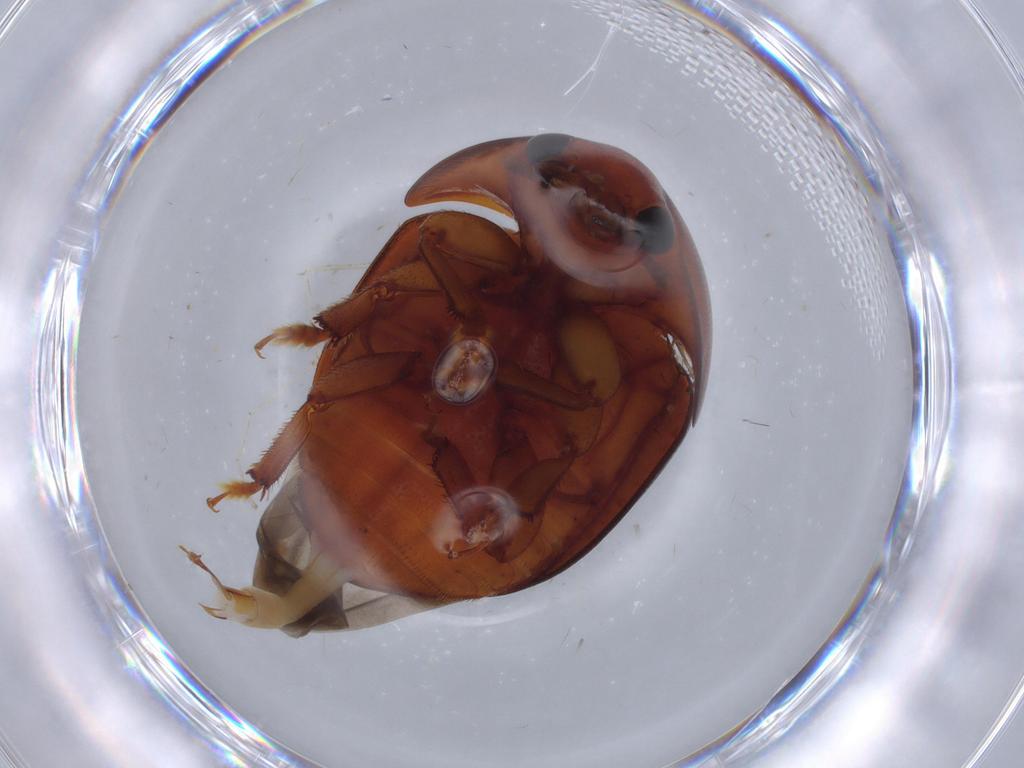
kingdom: Animalia
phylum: Arthropoda
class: Insecta
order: Coleoptera
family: Nitidulidae
